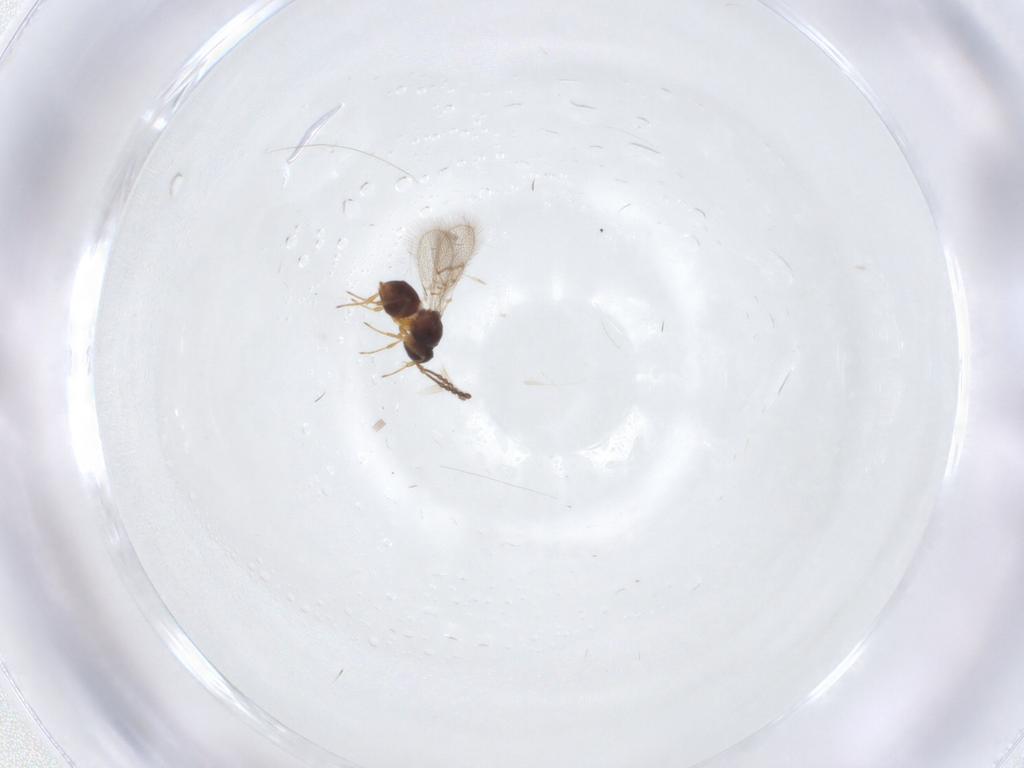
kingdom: Animalia
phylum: Arthropoda
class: Insecta
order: Hymenoptera
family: Figitidae
